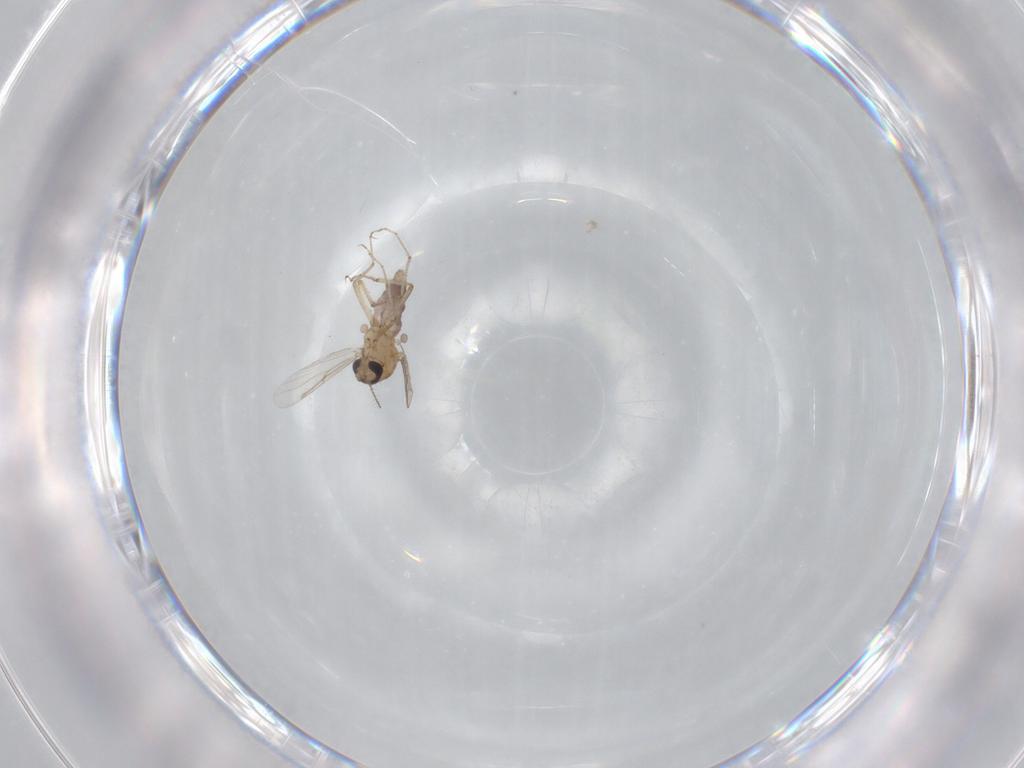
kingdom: Animalia
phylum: Arthropoda
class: Insecta
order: Diptera
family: Ceratopogonidae
